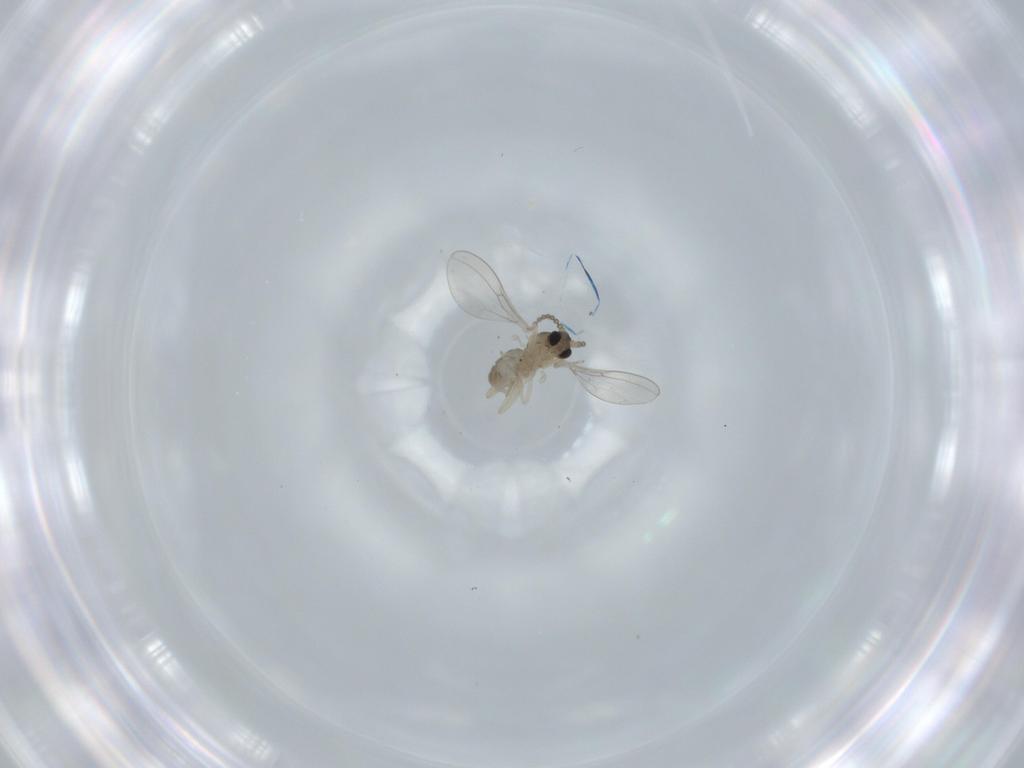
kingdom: Animalia
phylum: Arthropoda
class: Insecta
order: Diptera
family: Cecidomyiidae
